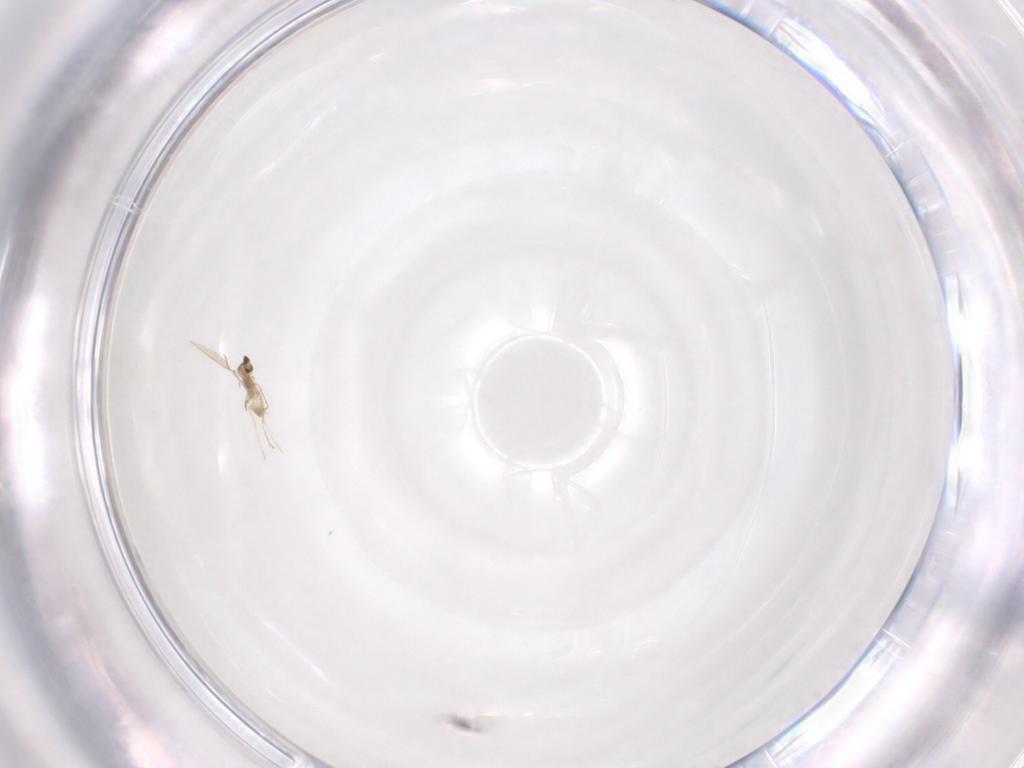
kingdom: Animalia
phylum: Arthropoda
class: Insecta
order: Diptera
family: Cecidomyiidae
